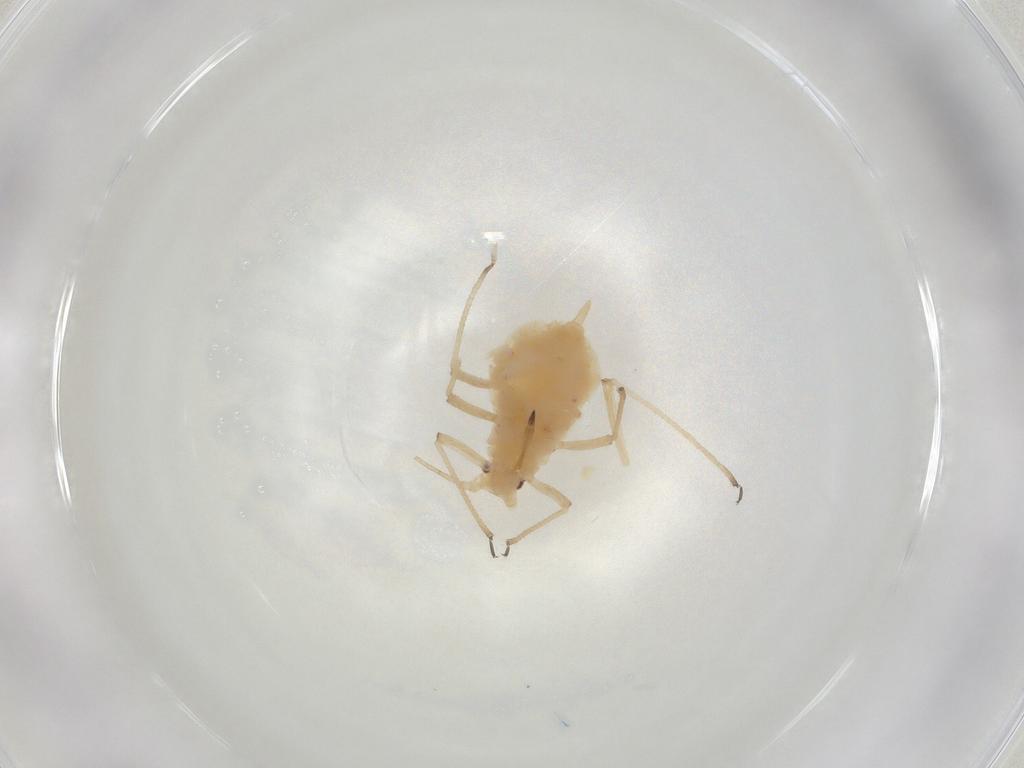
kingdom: Animalia
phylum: Arthropoda
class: Insecta
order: Hemiptera
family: Aphididae
